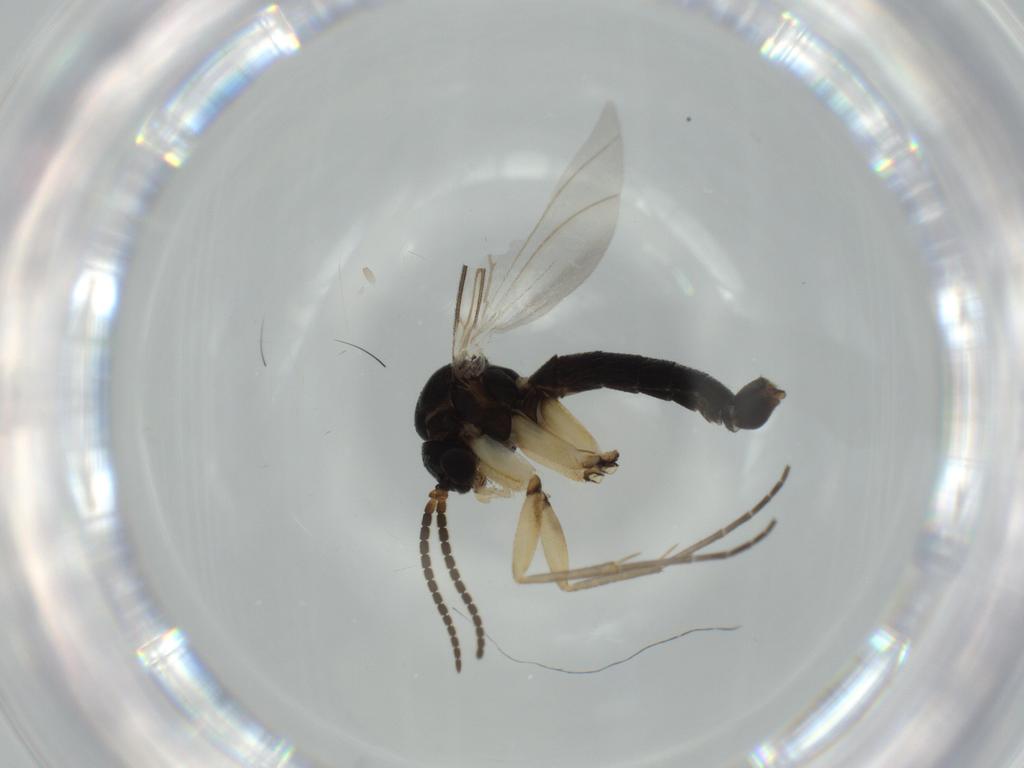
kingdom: Animalia
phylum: Arthropoda
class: Insecta
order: Diptera
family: Chironomidae
